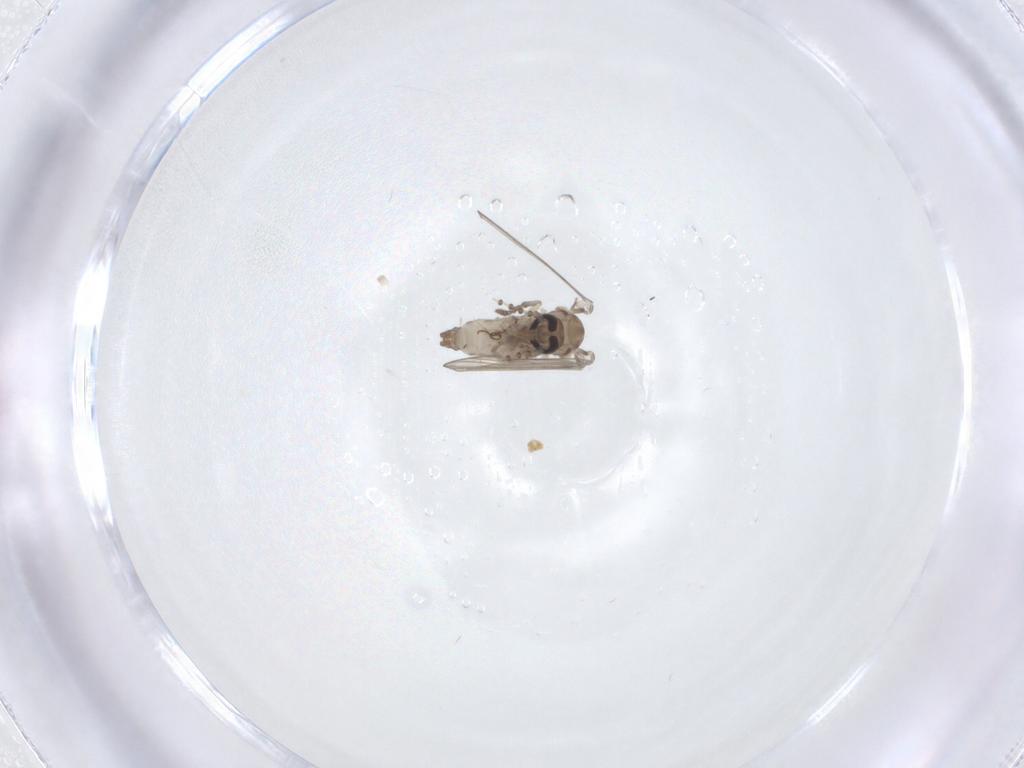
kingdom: Animalia
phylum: Arthropoda
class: Insecta
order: Diptera
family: Psychodidae
